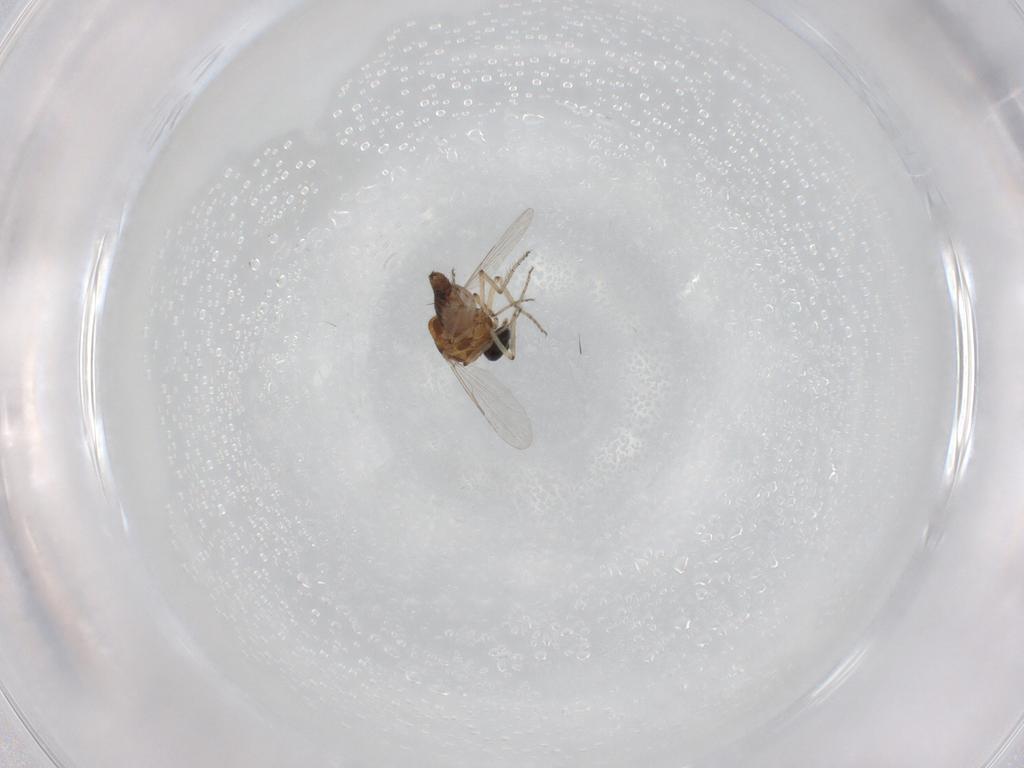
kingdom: Animalia
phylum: Arthropoda
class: Insecta
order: Diptera
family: Ceratopogonidae
